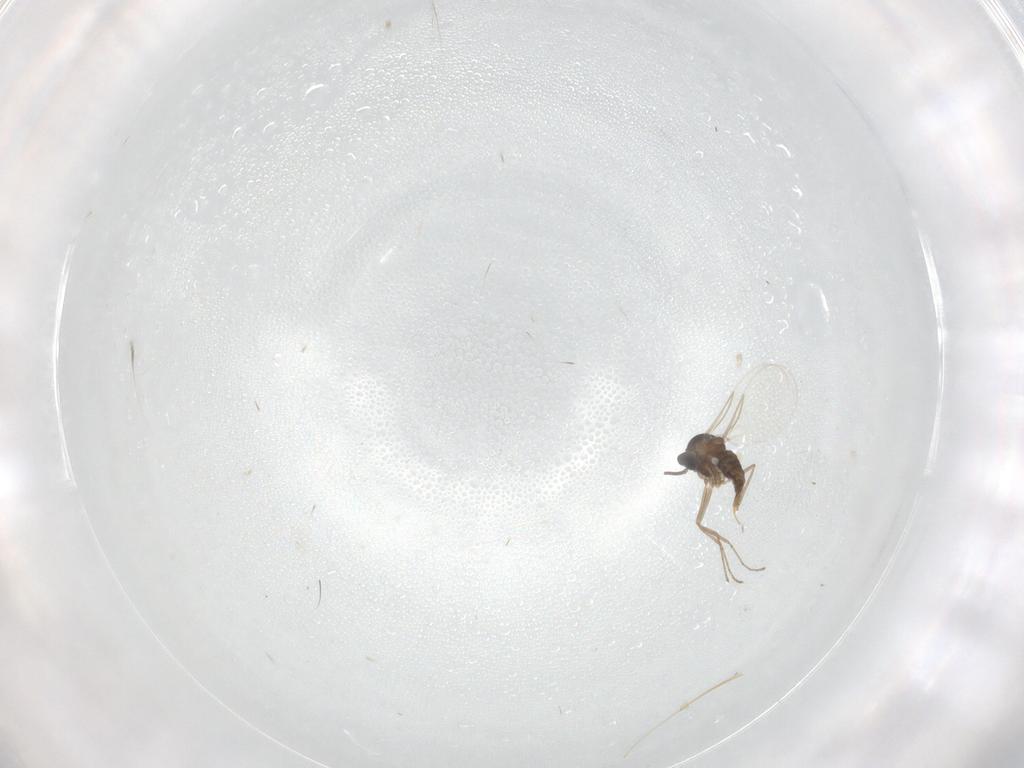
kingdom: Animalia
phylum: Arthropoda
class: Insecta
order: Diptera
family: Cecidomyiidae
